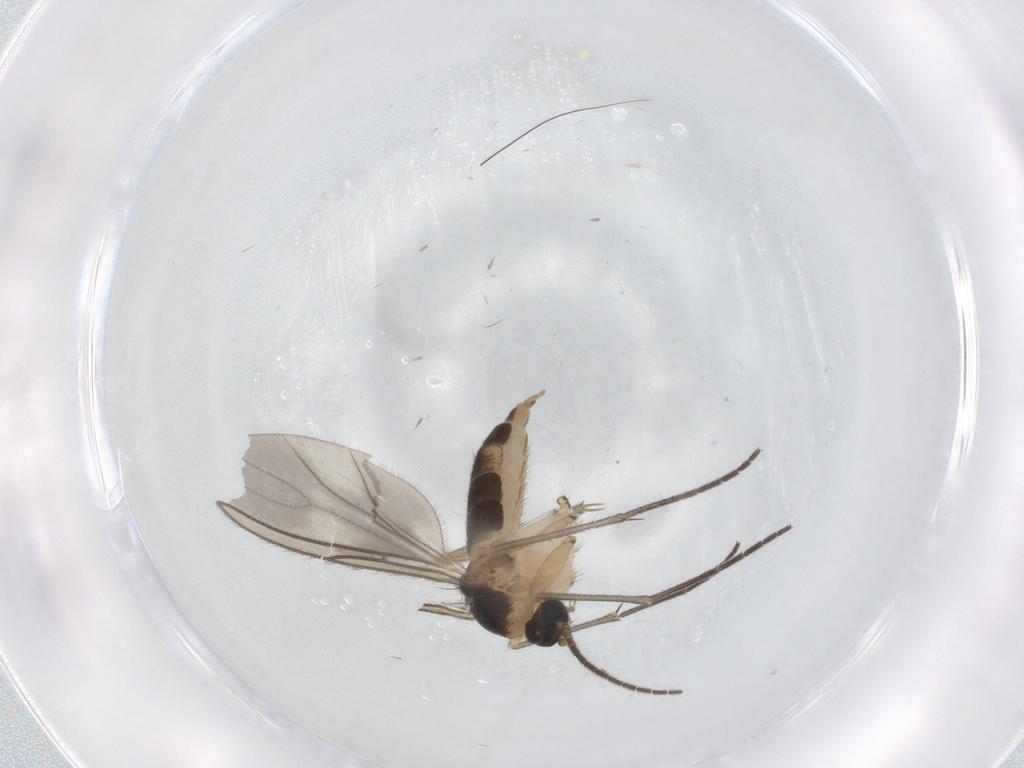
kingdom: Animalia
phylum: Arthropoda
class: Insecta
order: Diptera
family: Sciaridae
